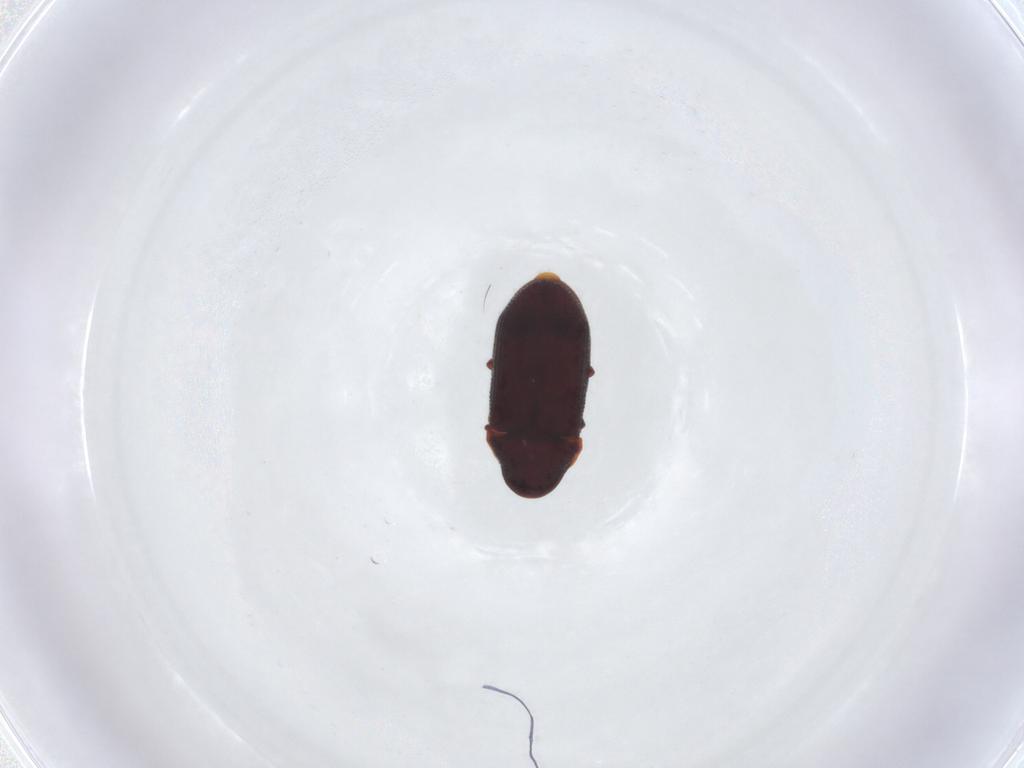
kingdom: Animalia
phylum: Arthropoda
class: Insecta
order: Coleoptera
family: Ptinidae
